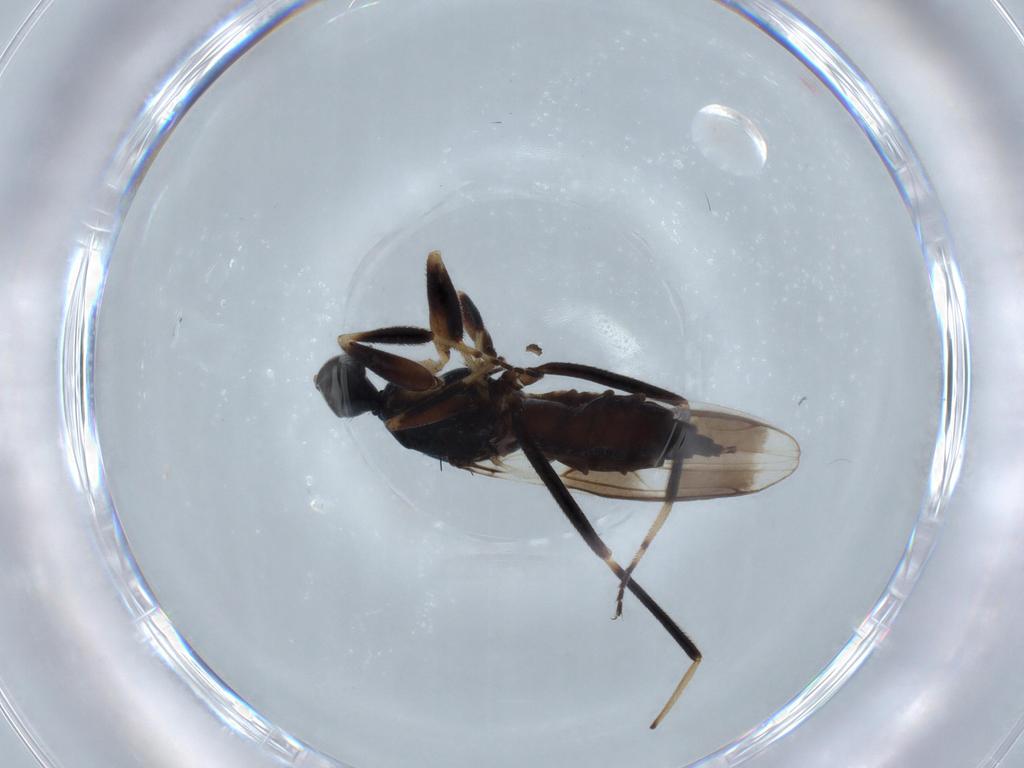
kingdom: Animalia
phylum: Arthropoda
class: Insecta
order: Diptera
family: Hybotidae
